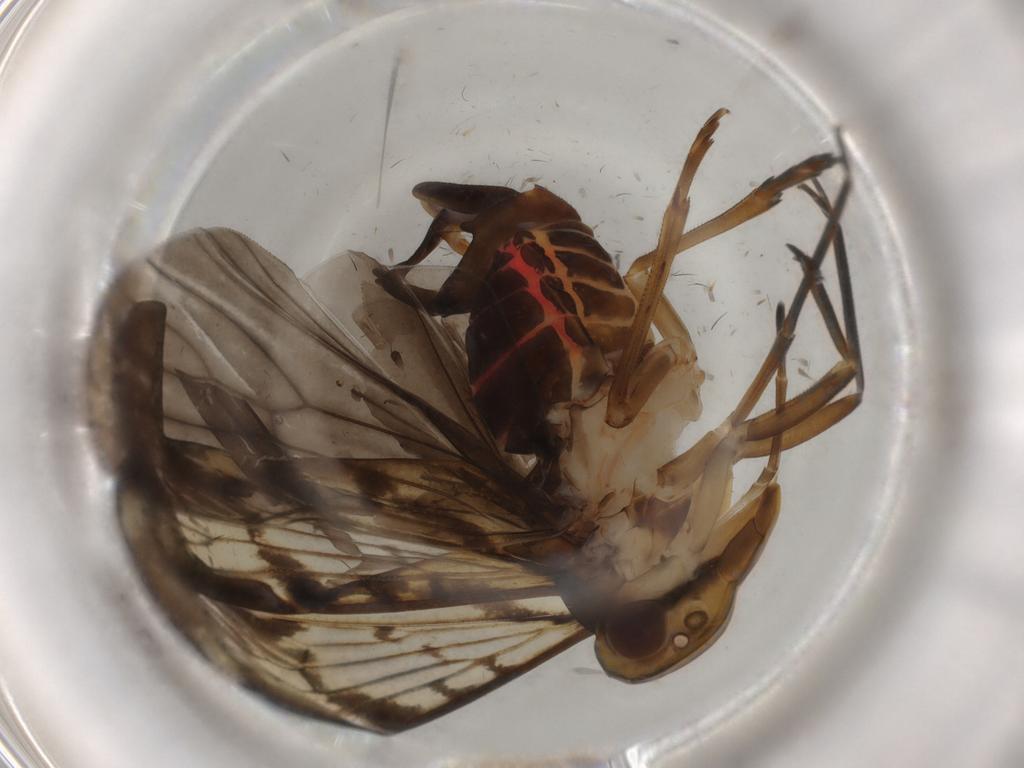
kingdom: Animalia
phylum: Arthropoda
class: Insecta
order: Hemiptera
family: Cixiidae
